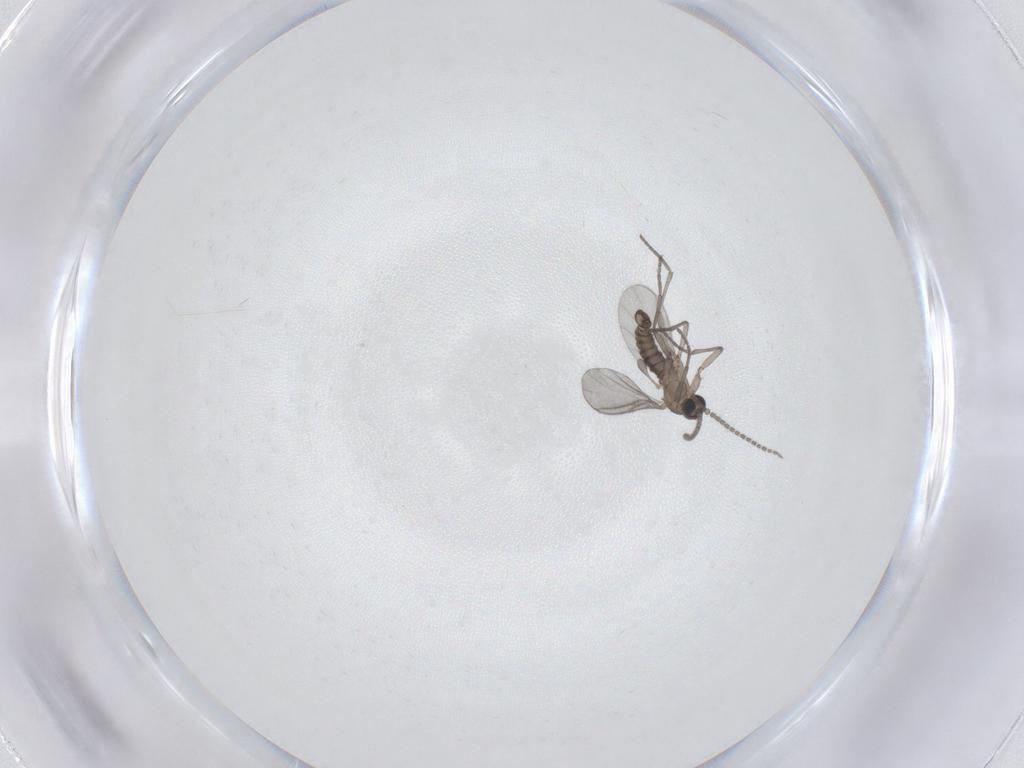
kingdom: Animalia
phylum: Arthropoda
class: Insecta
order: Diptera
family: Sciaridae
